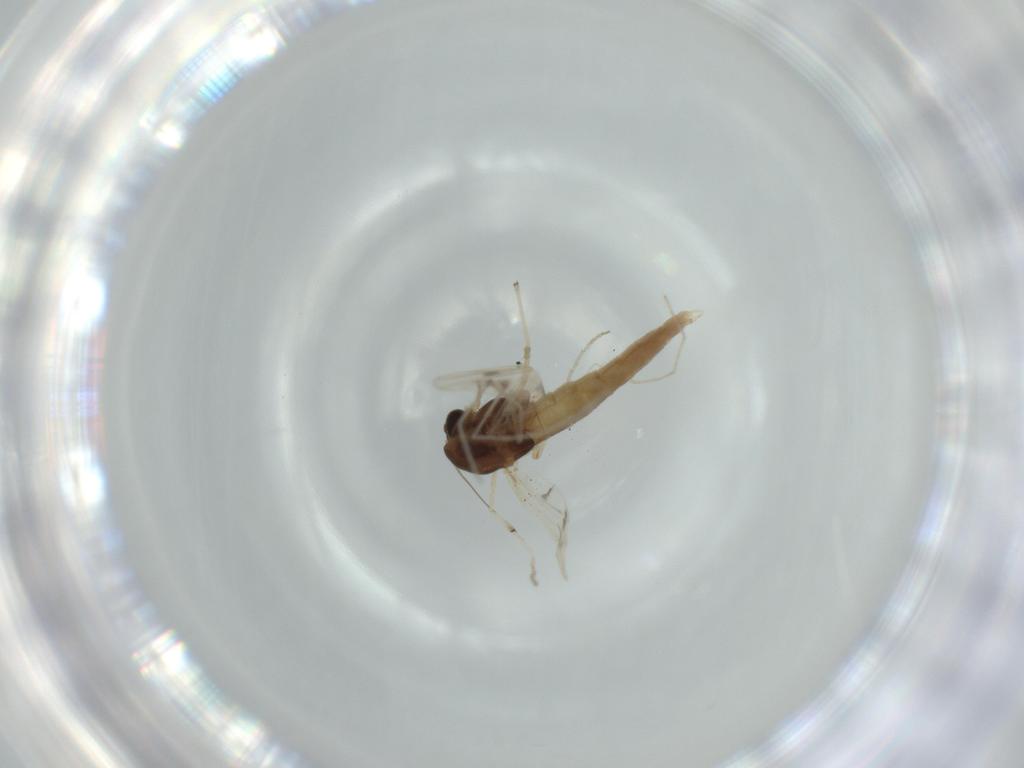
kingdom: Animalia
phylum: Arthropoda
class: Insecta
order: Diptera
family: Chironomidae
